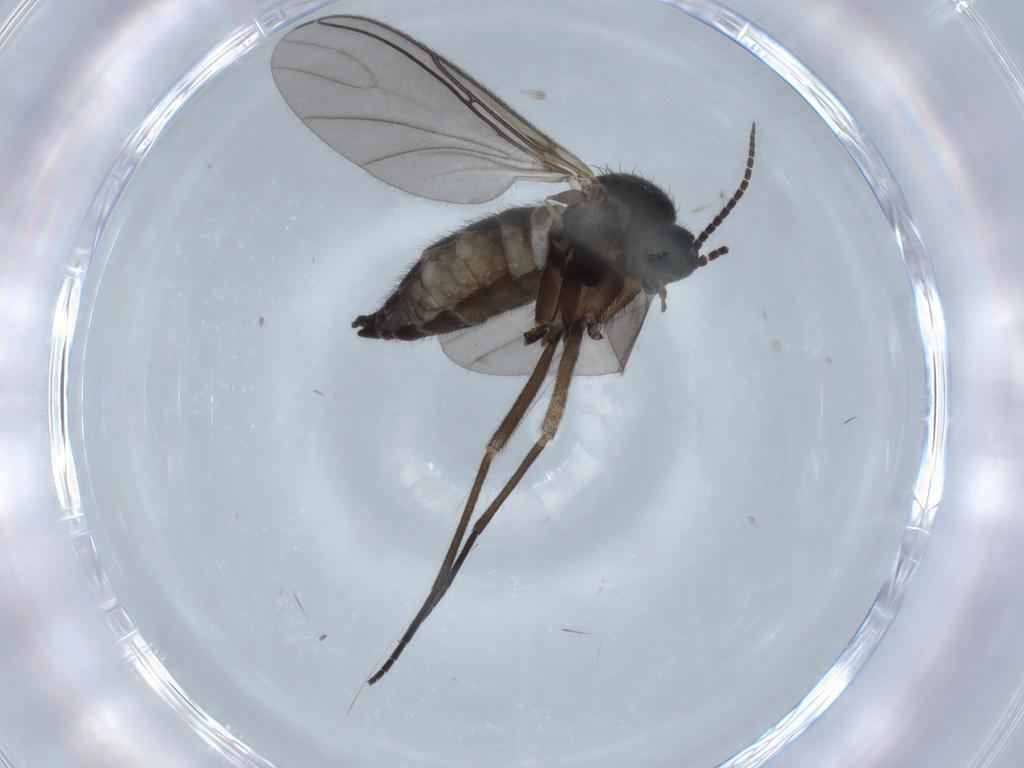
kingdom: Animalia
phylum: Arthropoda
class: Insecta
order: Diptera
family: Sciaridae
